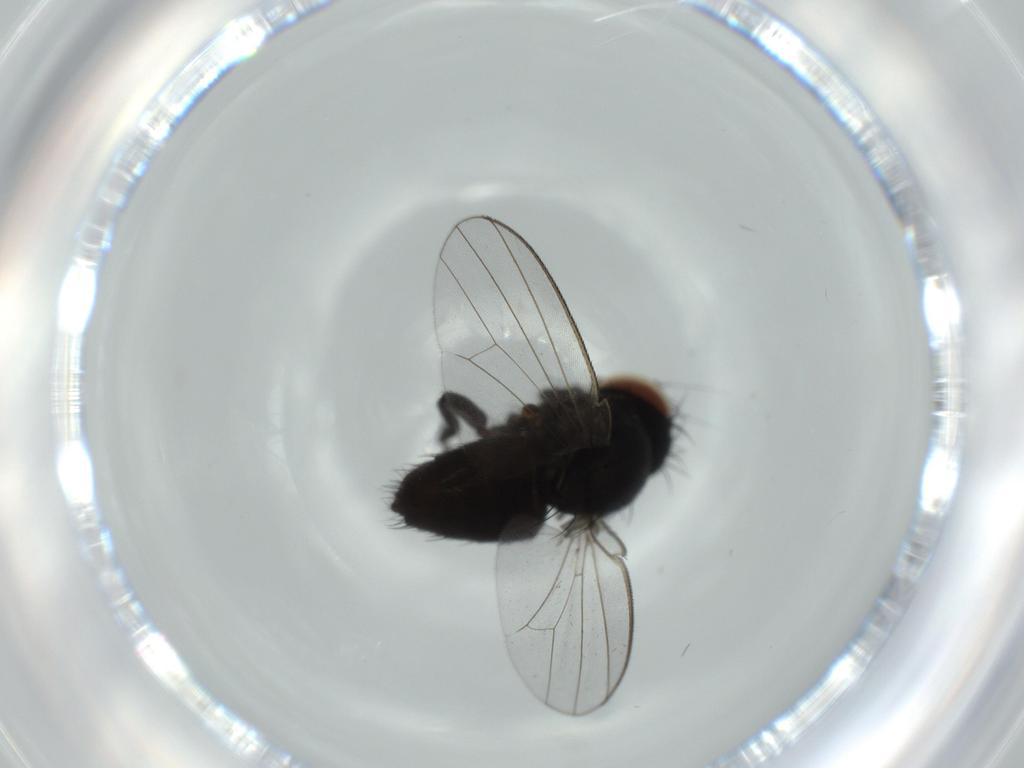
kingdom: Animalia
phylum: Arthropoda
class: Insecta
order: Diptera
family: Milichiidae
